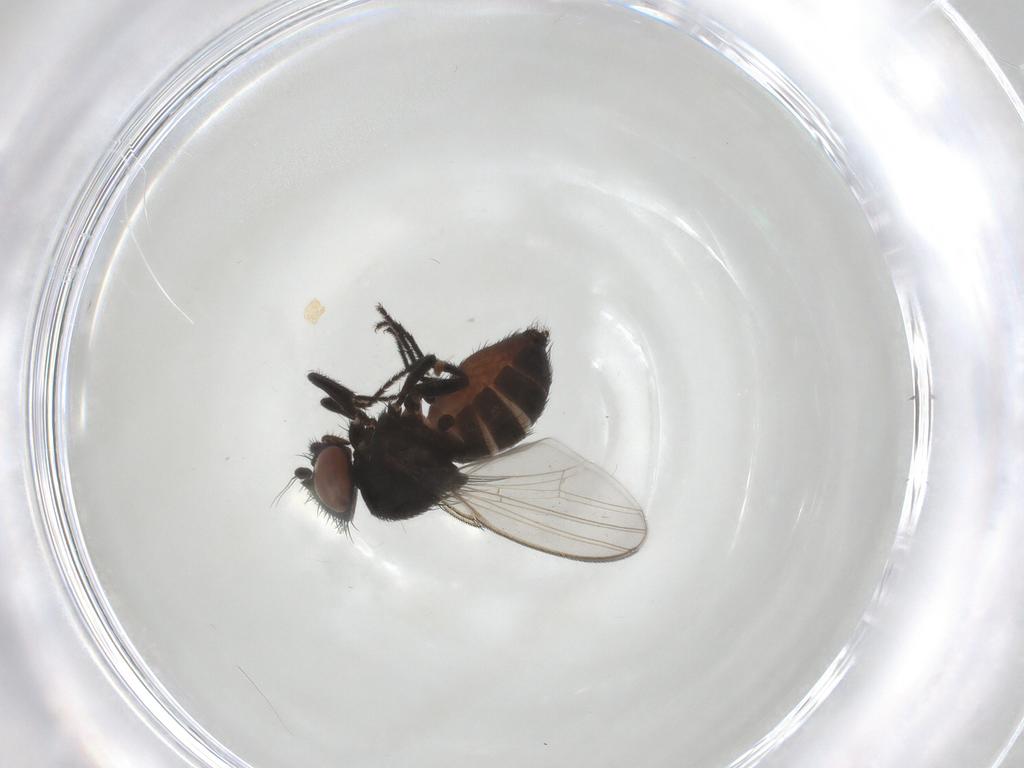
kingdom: Animalia
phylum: Arthropoda
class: Insecta
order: Diptera
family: Milichiidae
